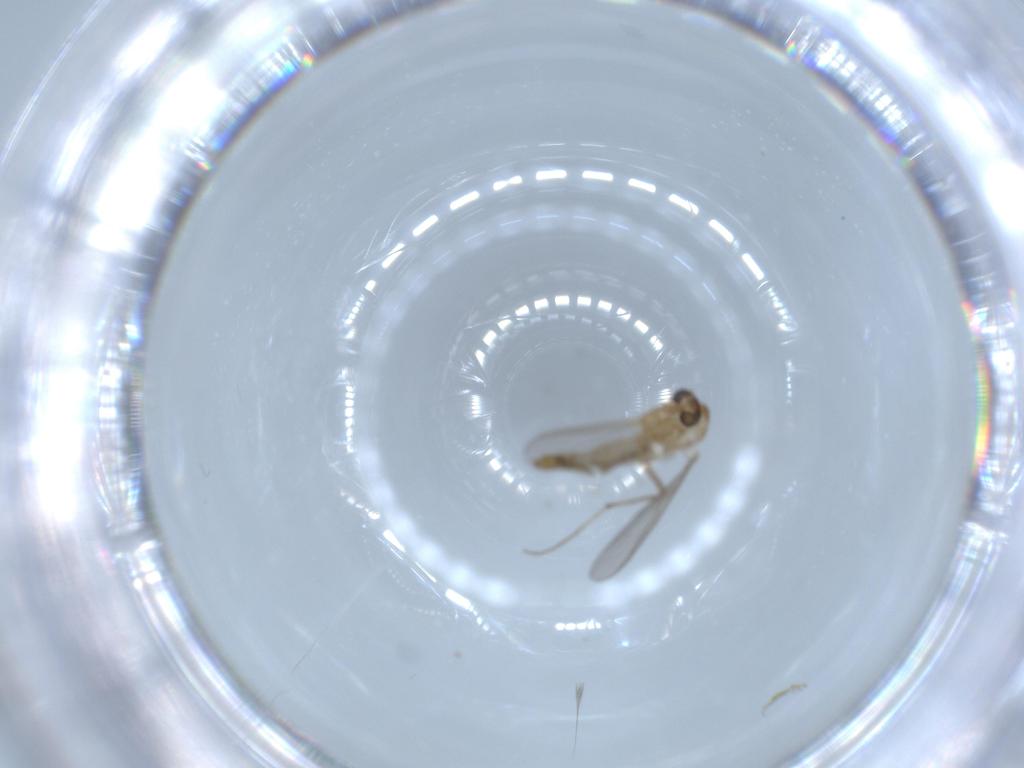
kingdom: Animalia
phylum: Arthropoda
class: Insecta
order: Diptera
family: Chironomidae
